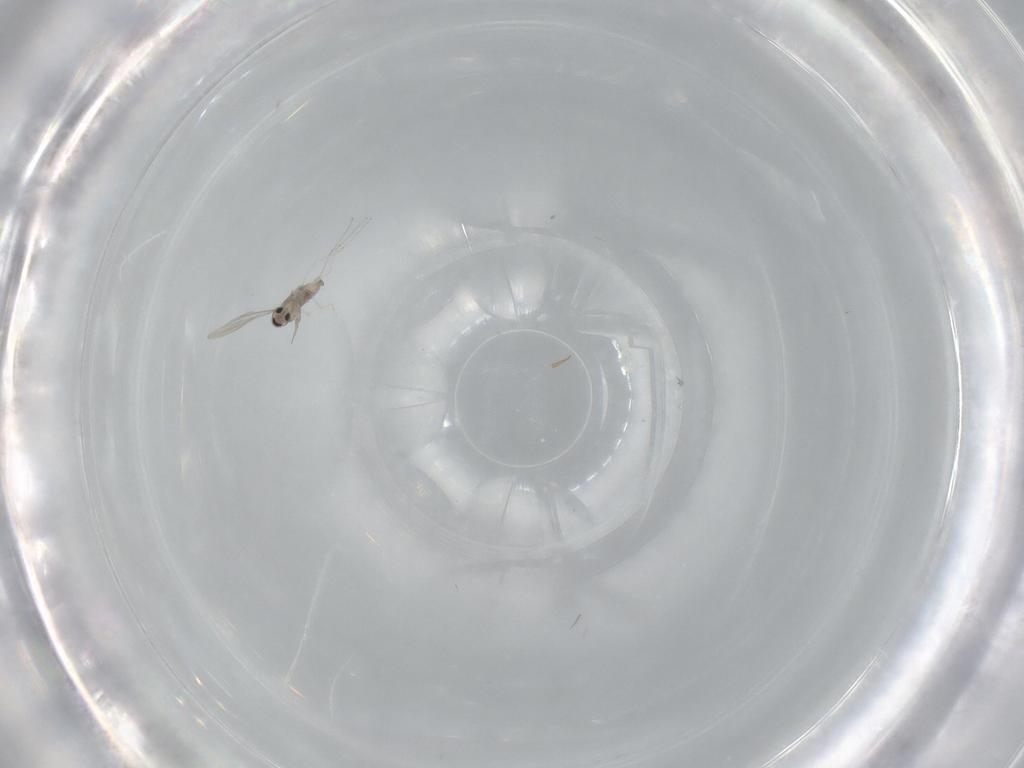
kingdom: Animalia
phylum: Arthropoda
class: Insecta
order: Diptera
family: Cecidomyiidae
